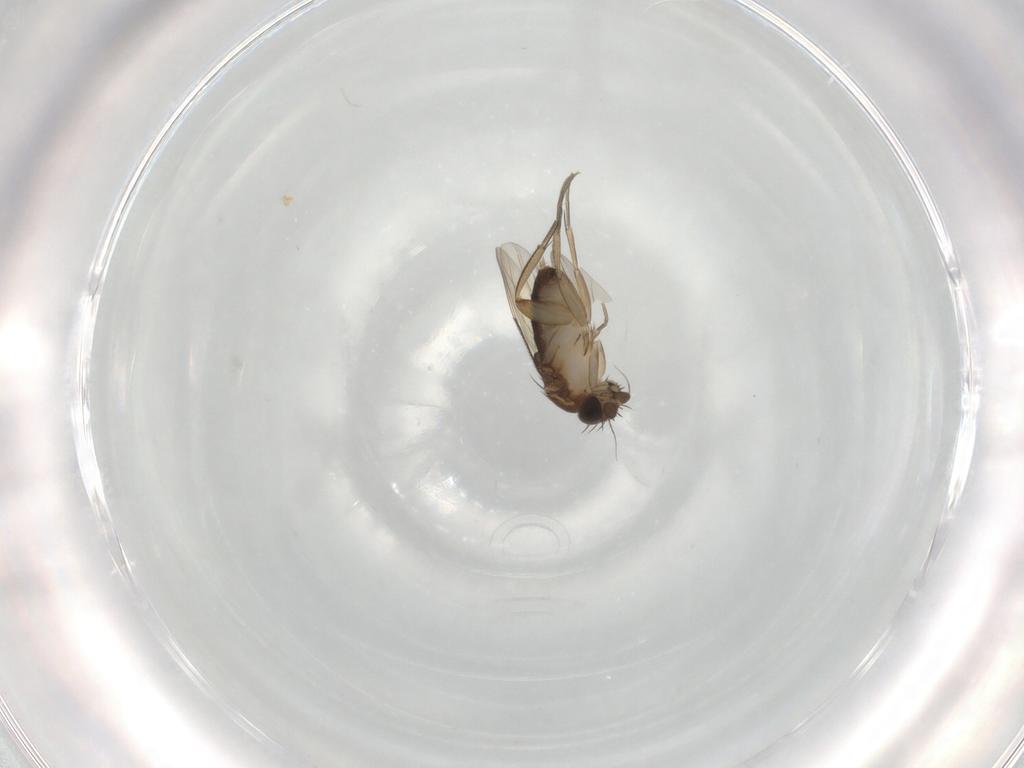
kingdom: Animalia
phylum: Arthropoda
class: Insecta
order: Diptera
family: Phoridae
